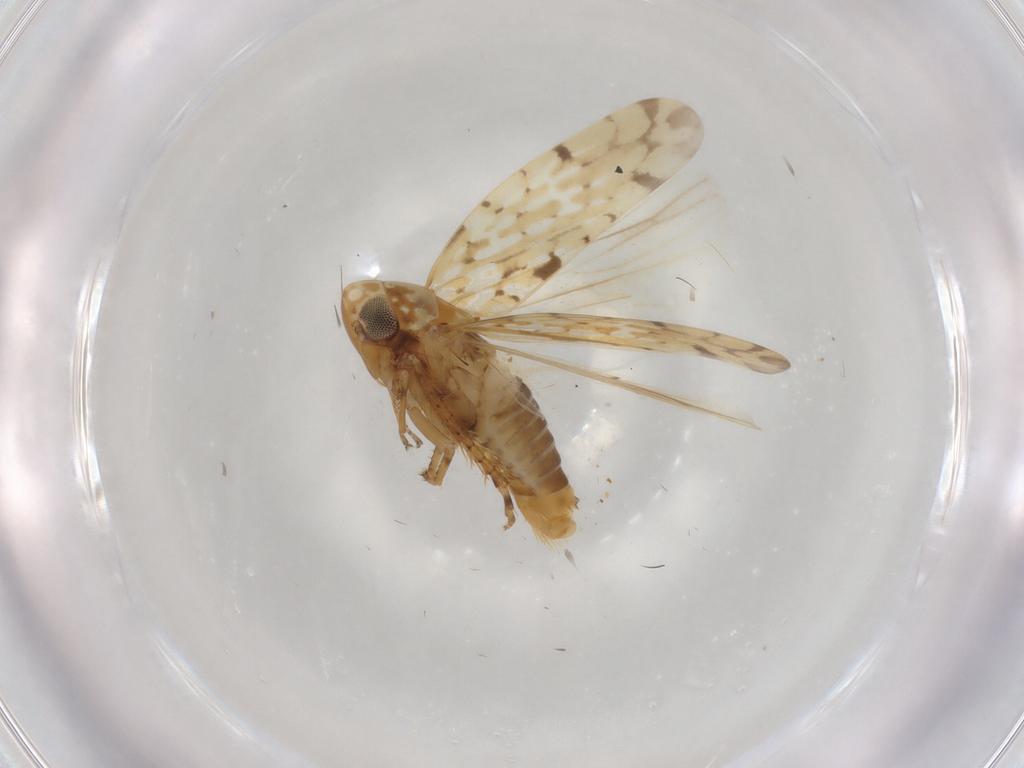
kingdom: Animalia
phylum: Arthropoda
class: Insecta
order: Hemiptera
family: Cicadellidae
